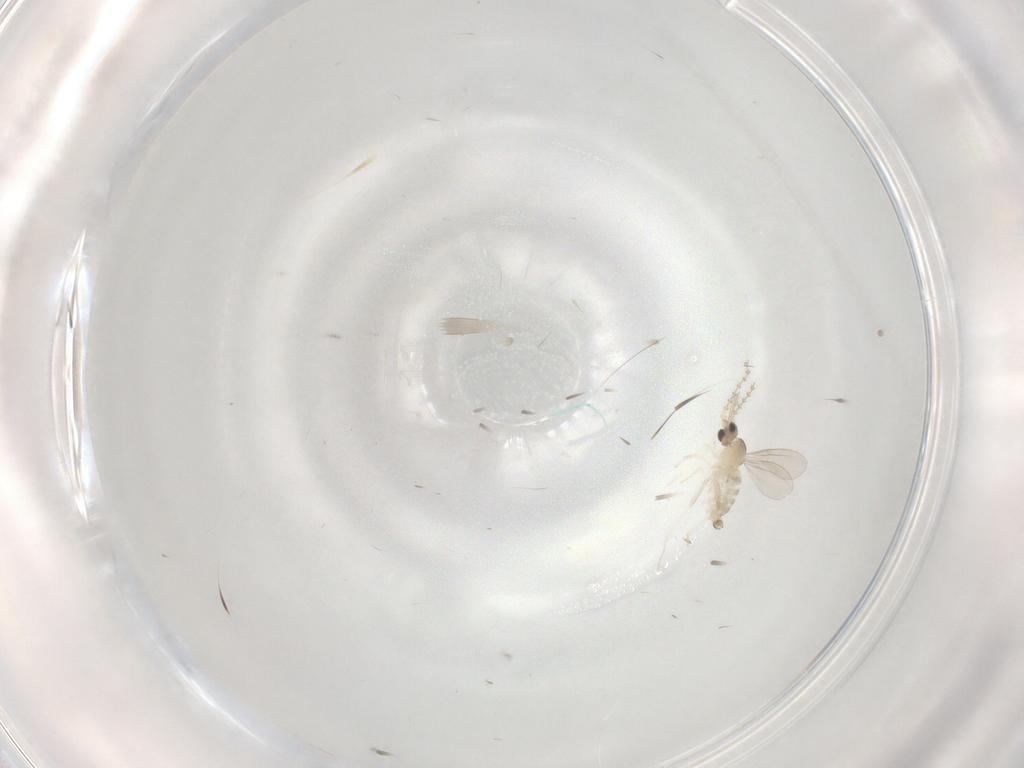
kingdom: Animalia
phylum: Arthropoda
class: Insecta
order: Diptera
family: Chironomidae
